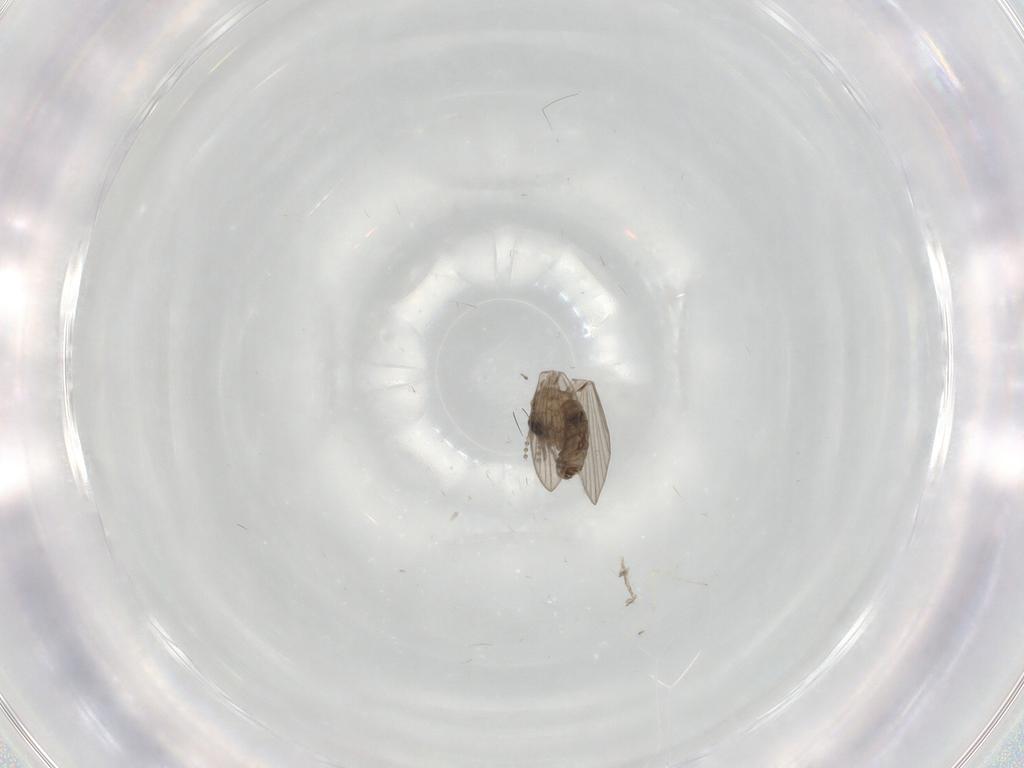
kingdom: Animalia
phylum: Arthropoda
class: Insecta
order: Diptera
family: Psychodidae
